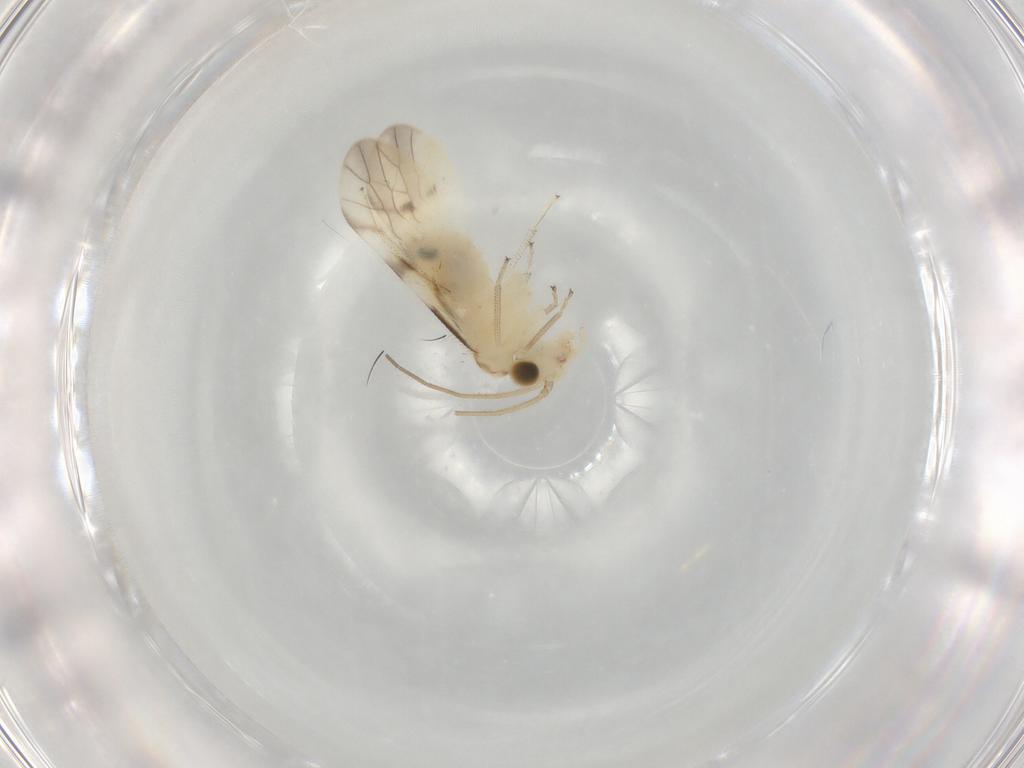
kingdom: Animalia
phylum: Arthropoda
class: Insecta
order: Psocodea
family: Caeciliusidae
